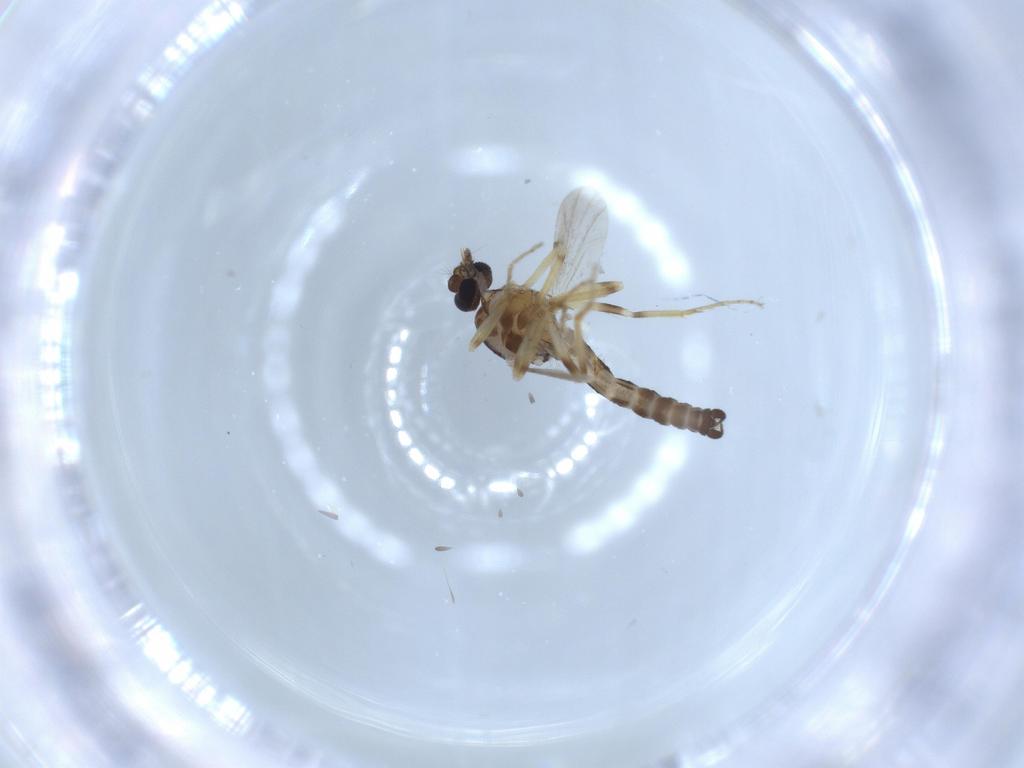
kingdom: Animalia
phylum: Arthropoda
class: Insecta
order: Diptera
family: Ceratopogonidae
